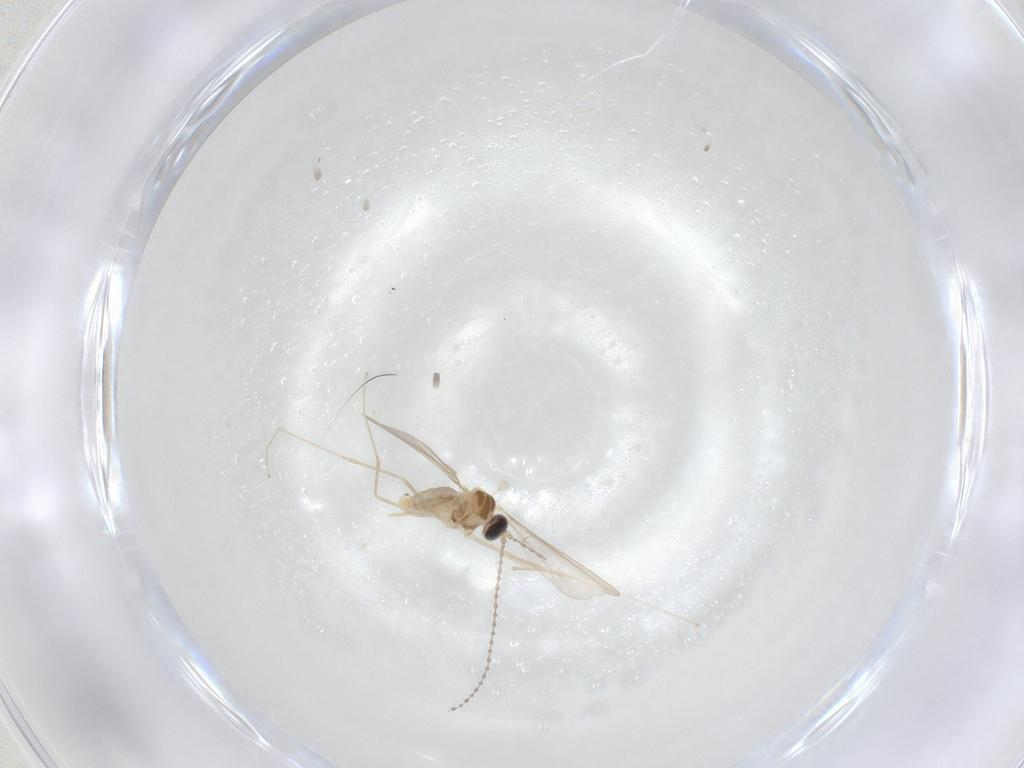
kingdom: Animalia
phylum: Arthropoda
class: Insecta
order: Diptera
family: Cecidomyiidae
